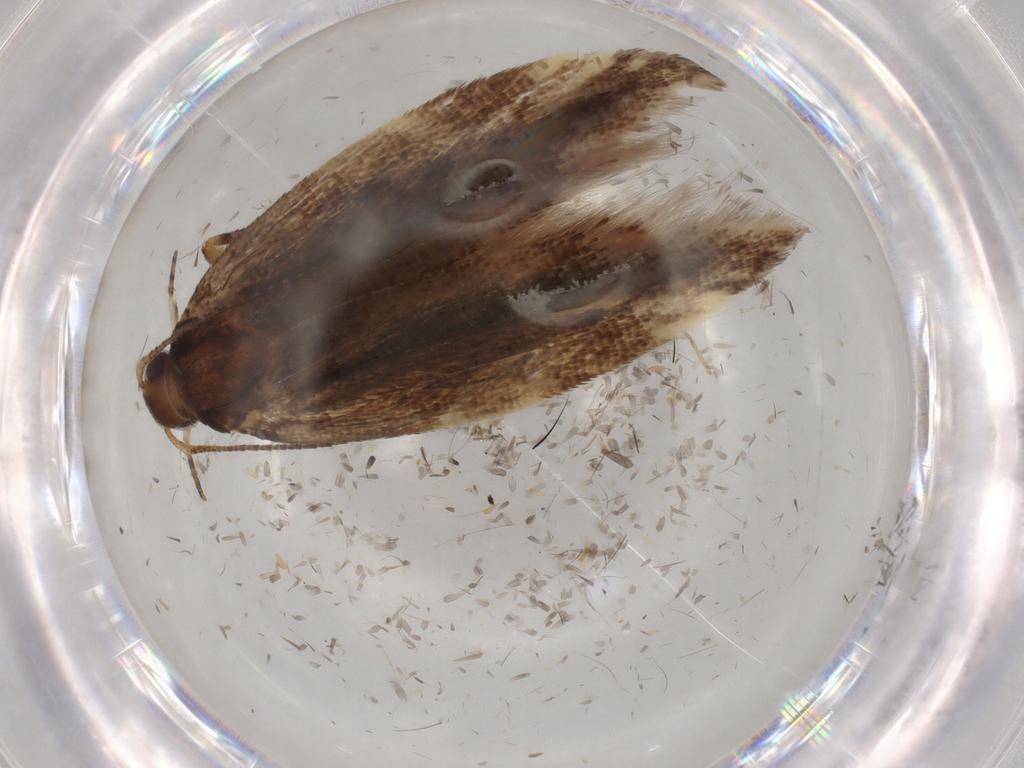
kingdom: Animalia
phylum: Arthropoda
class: Insecta
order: Lepidoptera
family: Gelechiidae
